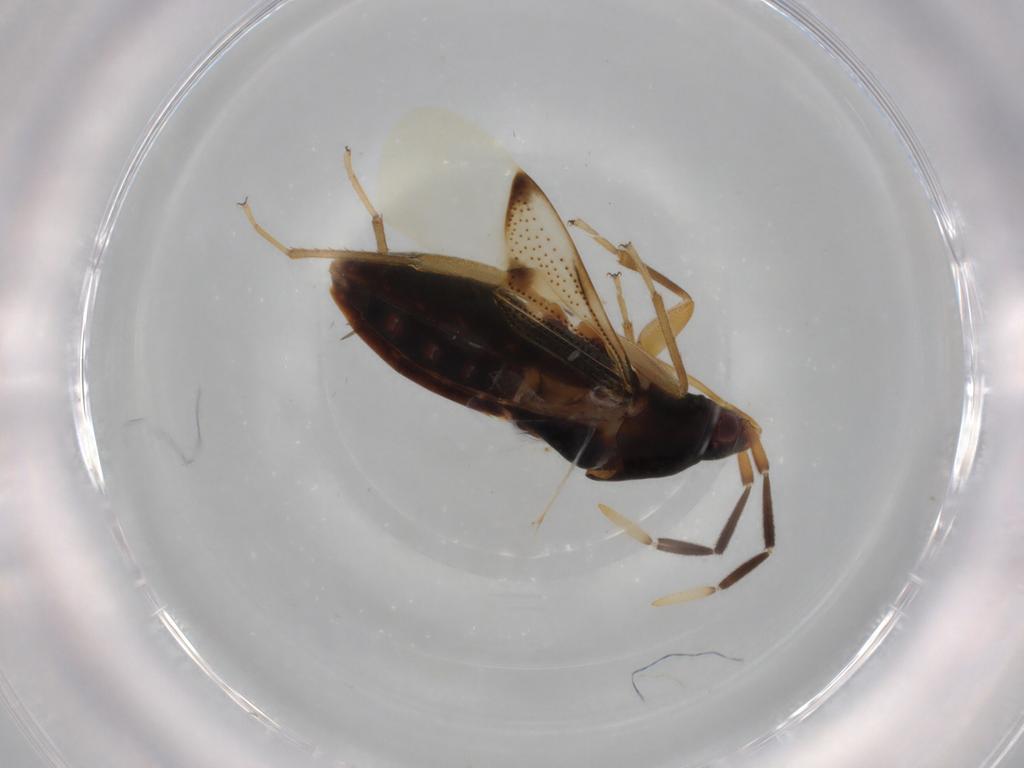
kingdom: Animalia
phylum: Arthropoda
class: Insecta
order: Hemiptera
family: Rhyparochromidae
